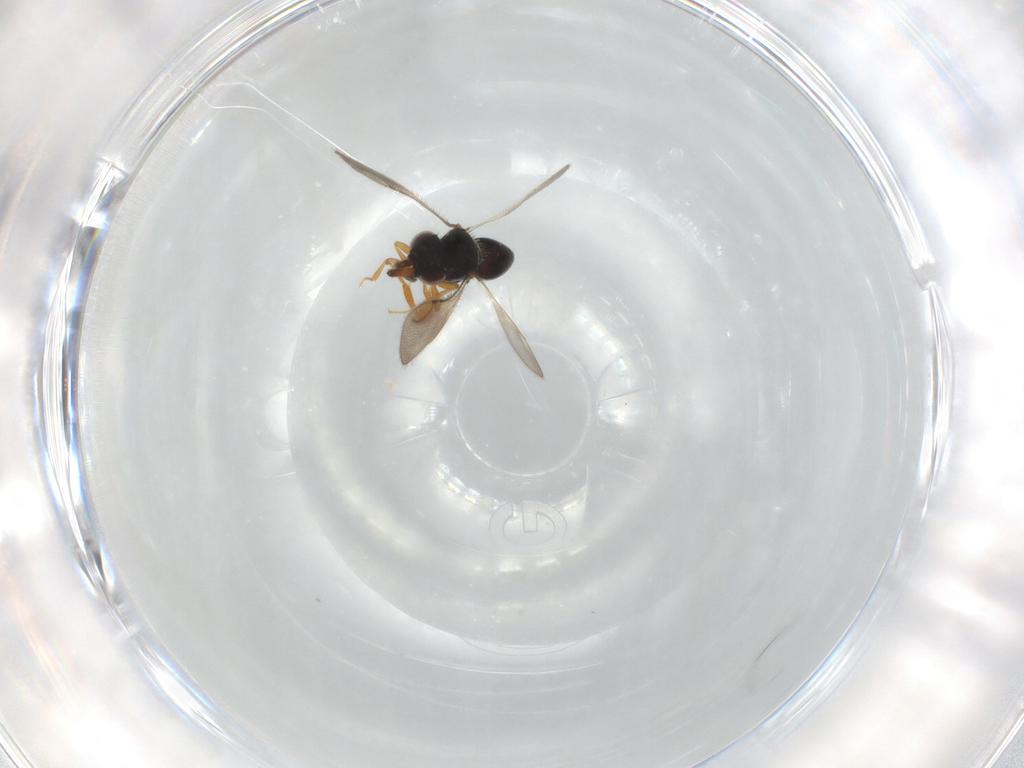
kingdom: Animalia
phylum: Arthropoda
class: Insecta
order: Hymenoptera
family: Ceraphronidae
